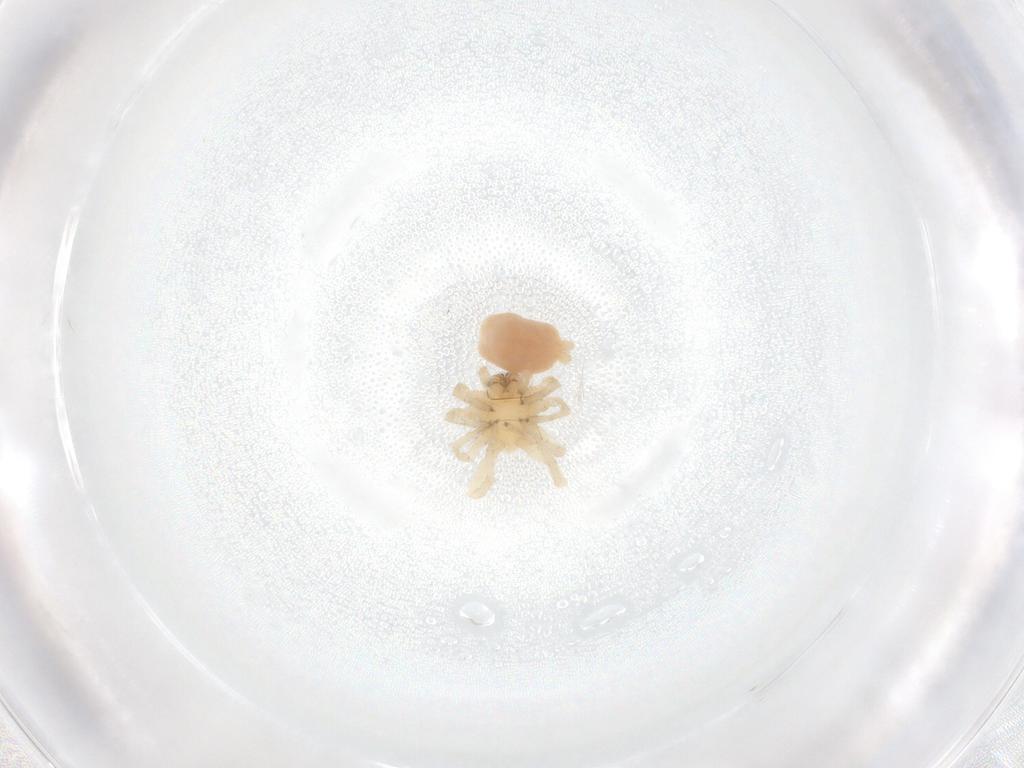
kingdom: Animalia
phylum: Arthropoda
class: Arachnida
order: Araneae
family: Clubionidae
